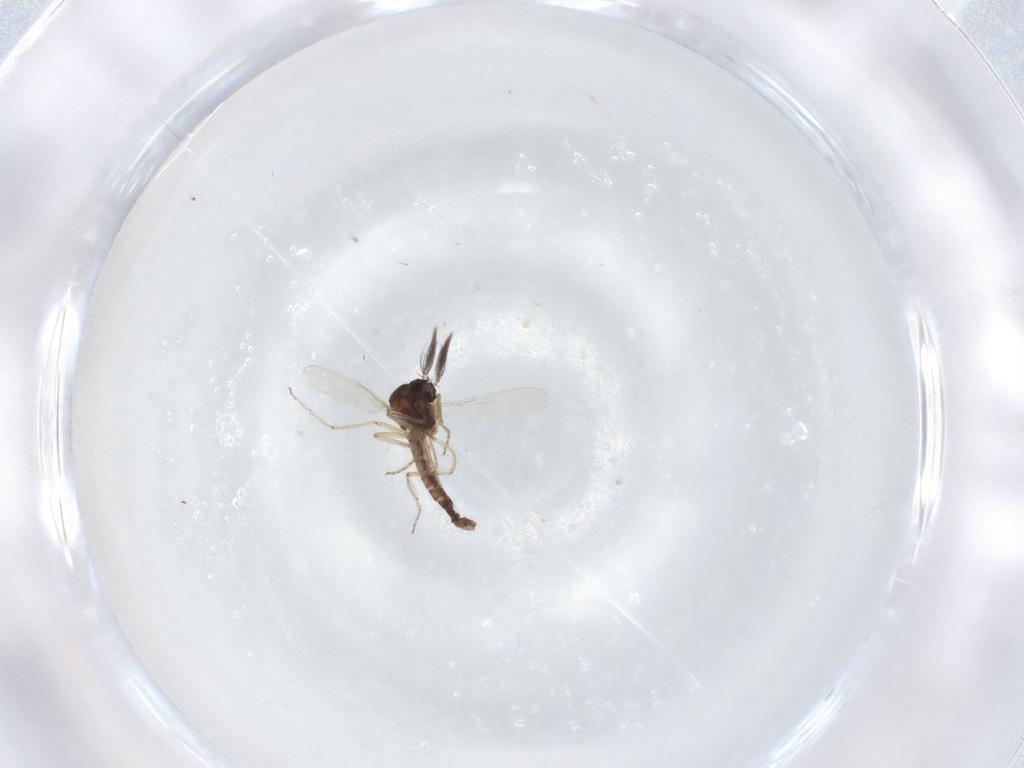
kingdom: Animalia
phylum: Arthropoda
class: Insecta
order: Diptera
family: Ceratopogonidae
